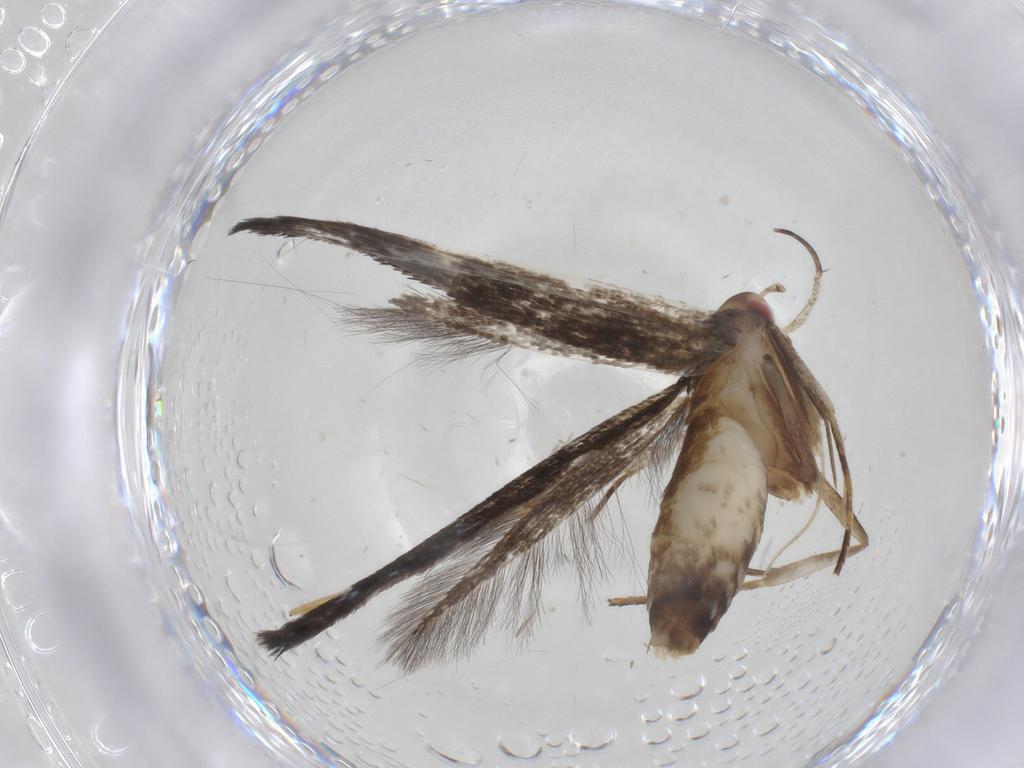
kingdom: Animalia
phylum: Arthropoda
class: Insecta
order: Lepidoptera
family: Cosmopterigidae
